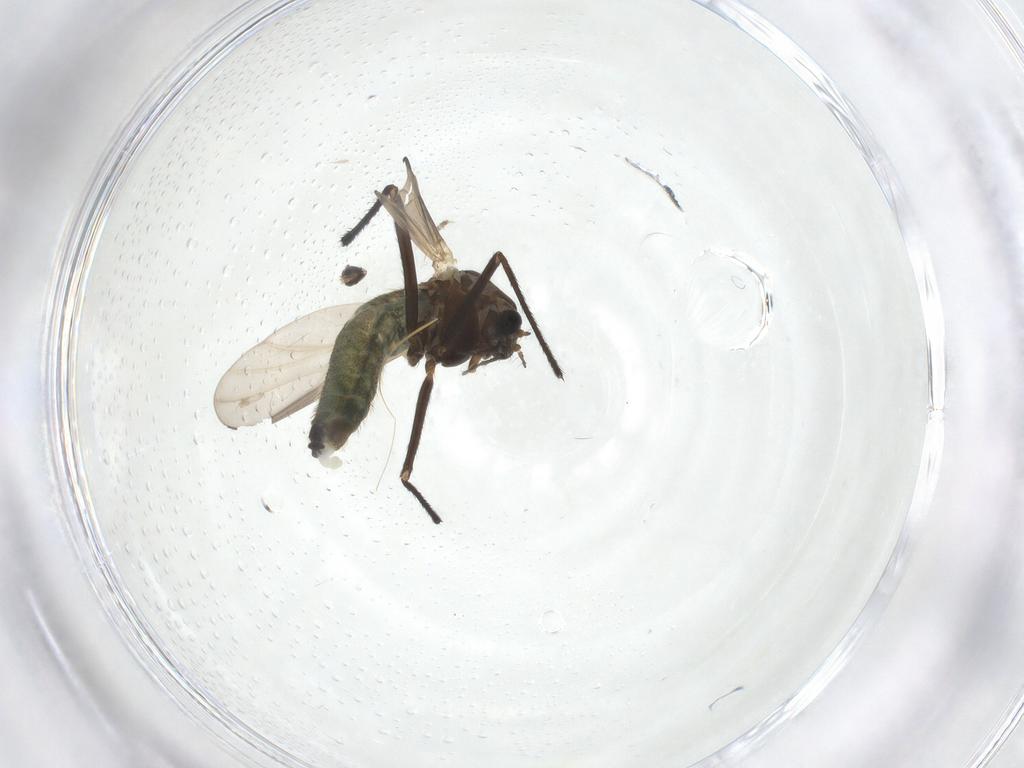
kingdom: Animalia
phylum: Arthropoda
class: Insecta
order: Diptera
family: Chironomidae
